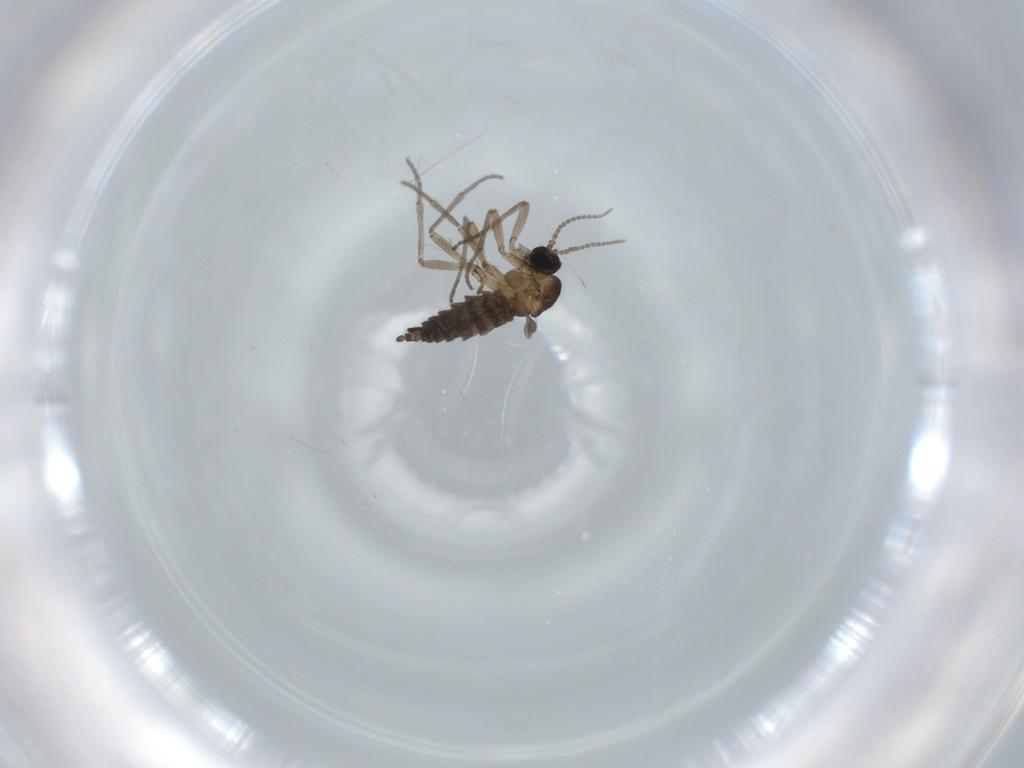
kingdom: Animalia
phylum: Arthropoda
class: Insecta
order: Diptera
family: Sciaridae
